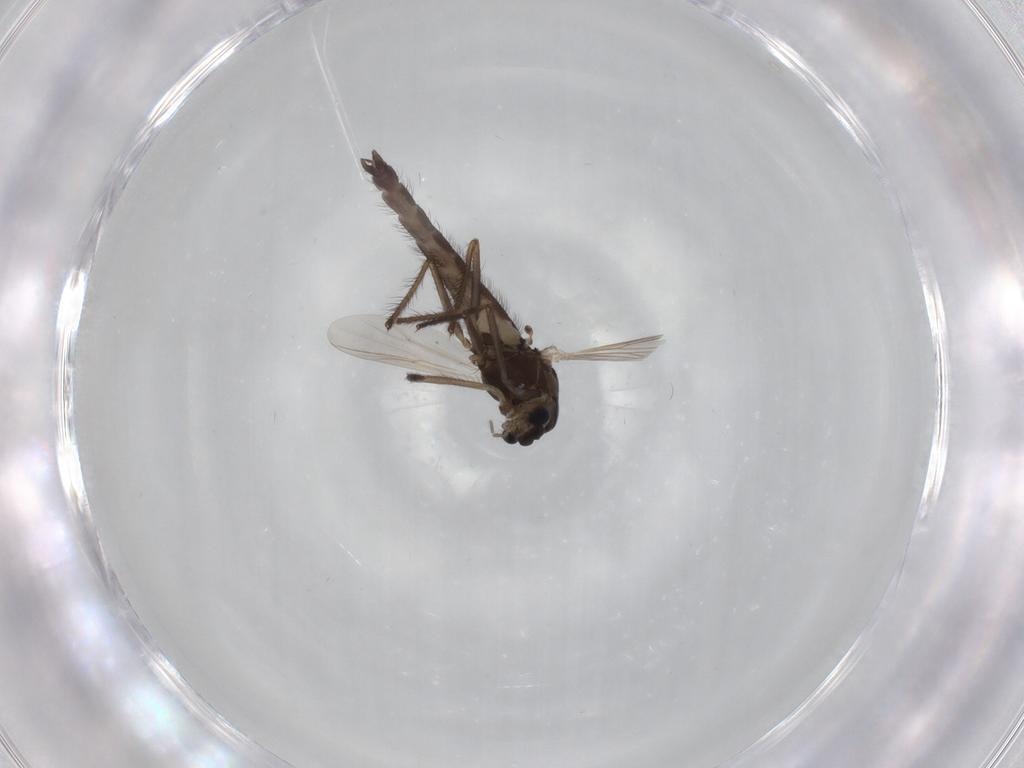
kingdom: Animalia
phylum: Arthropoda
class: Insecta
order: Diptera
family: Chironomidae
